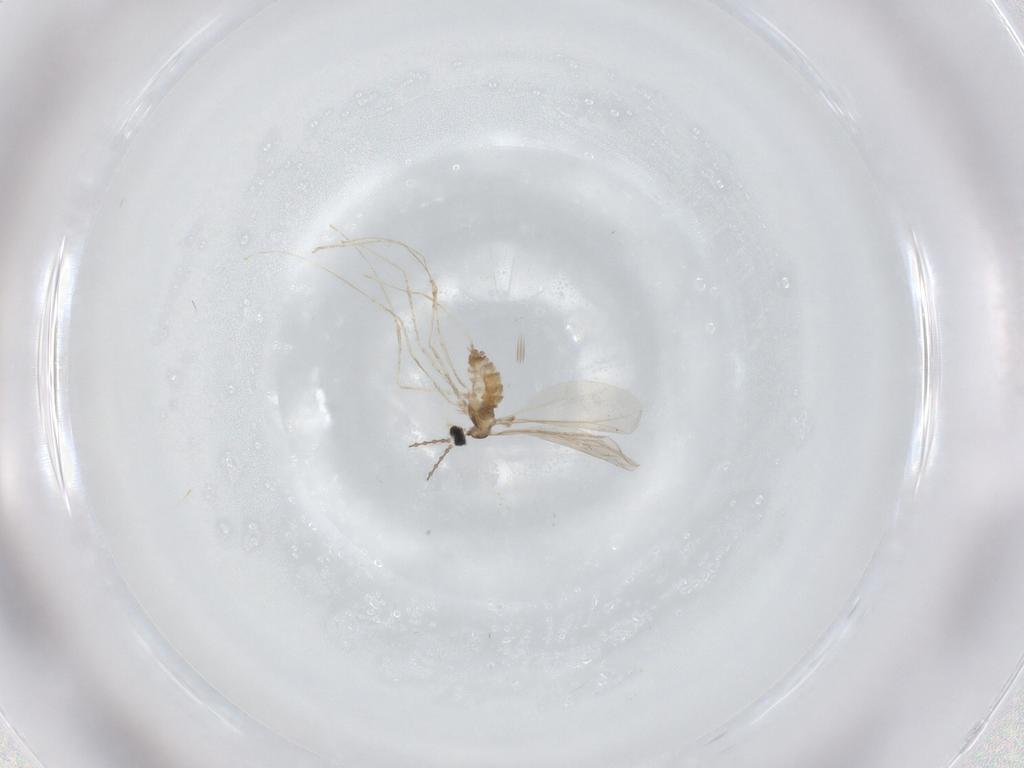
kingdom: Animalia
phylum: Arthropoda
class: Insecta
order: Diptera
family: Cecidomyiidae
